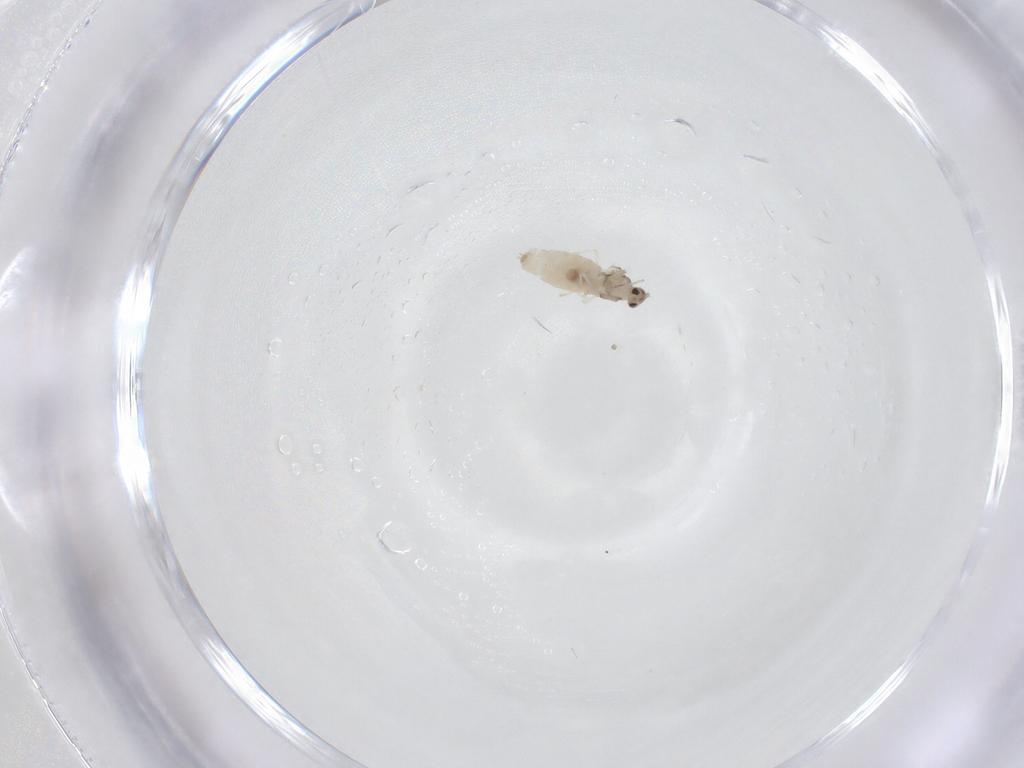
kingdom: Animalia
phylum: Arthropoda
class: Insecta
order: Diptera
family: Cecidomyiidae
